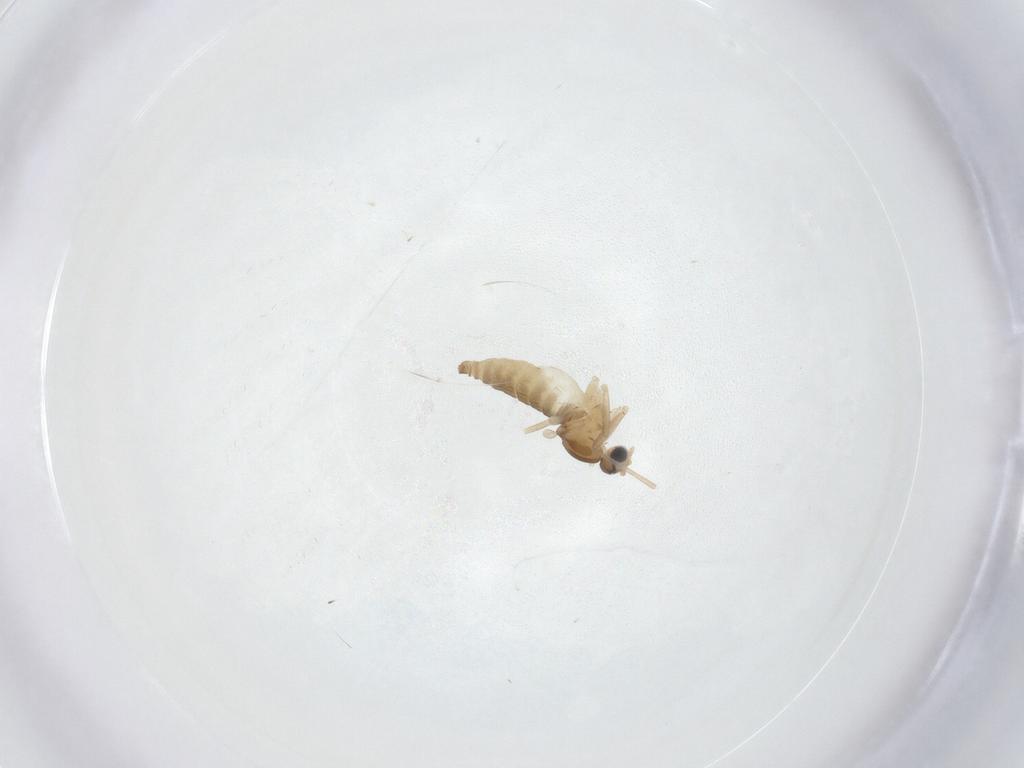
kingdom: Animalia
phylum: Arthropoda
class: Insecta
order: Diptera
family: Cecidomyiidae
